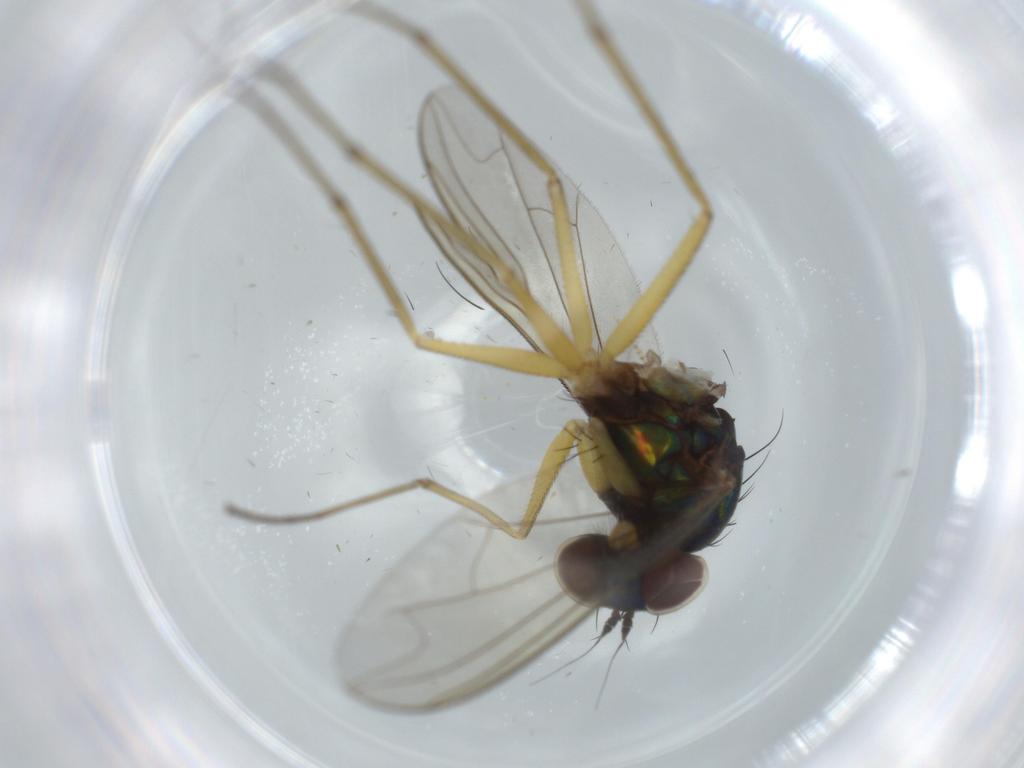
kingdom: Animalia
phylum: Arthropoda
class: Insecta
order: Diptera
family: Dolichopodidae
